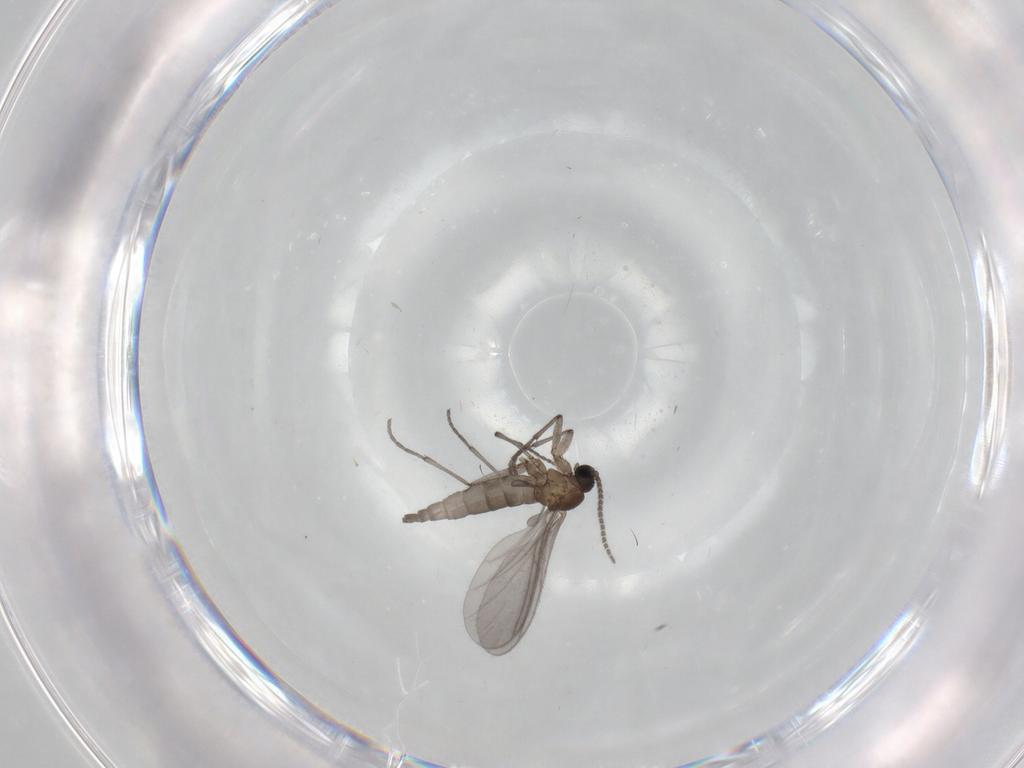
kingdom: Animalia
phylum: Arthropoda
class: Insecta
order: Diptera
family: Sciaridae
